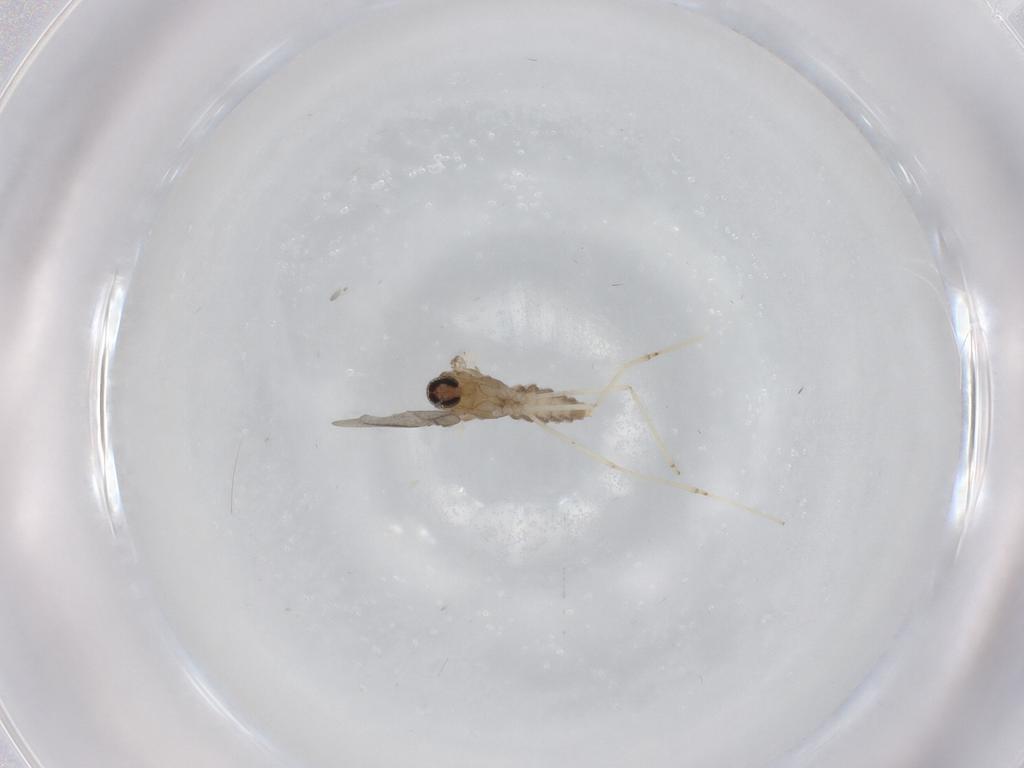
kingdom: Animalia
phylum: Arthropoda
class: Insecta
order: Diptera
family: Cecidomyiidae
